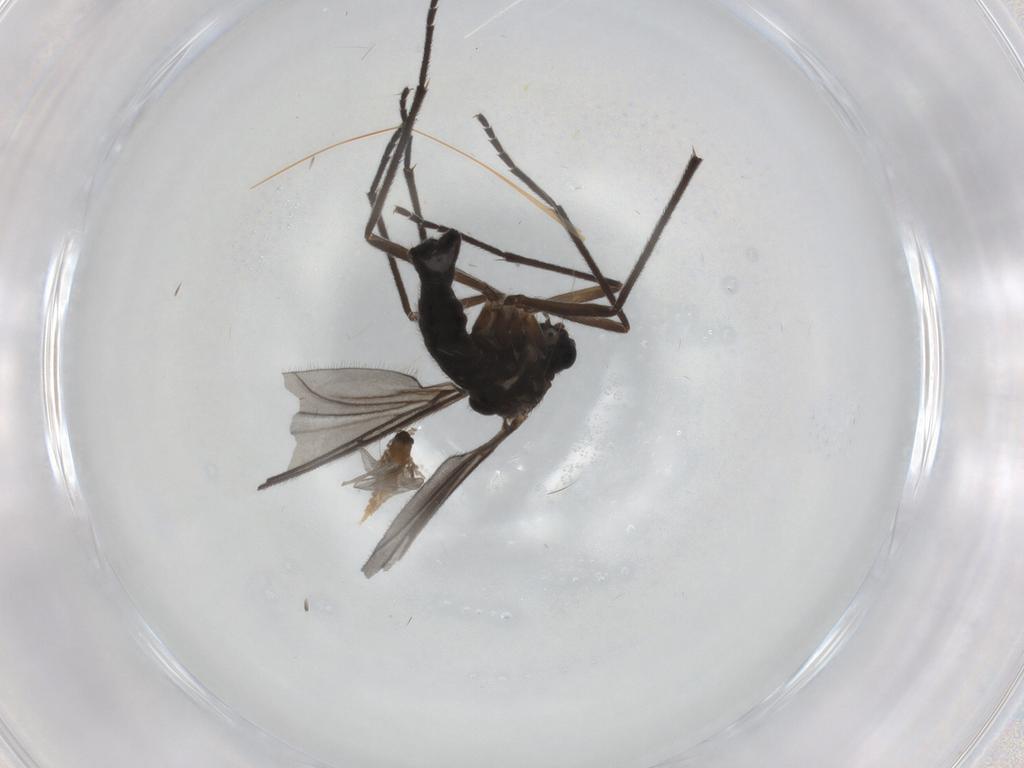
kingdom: Animalia
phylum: Arthropoda
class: Insecta
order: Diptera
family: Sciaridae
